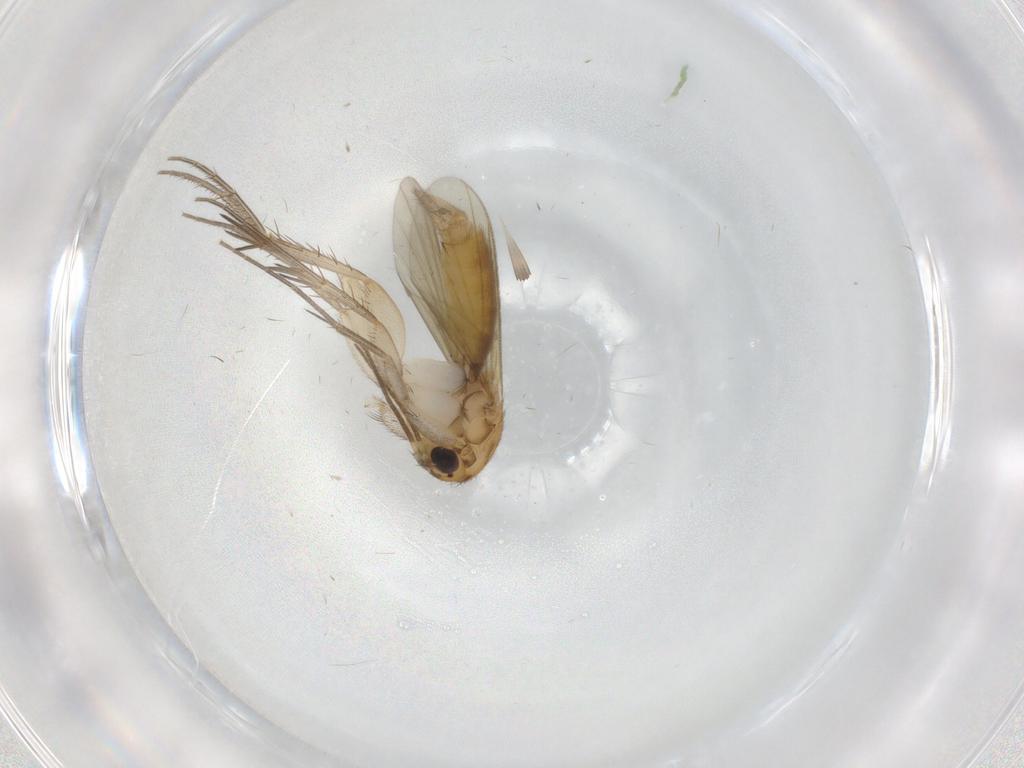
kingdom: Animalia
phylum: Arthropoda
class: Insecta
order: Diptera
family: Mycetophilidae
